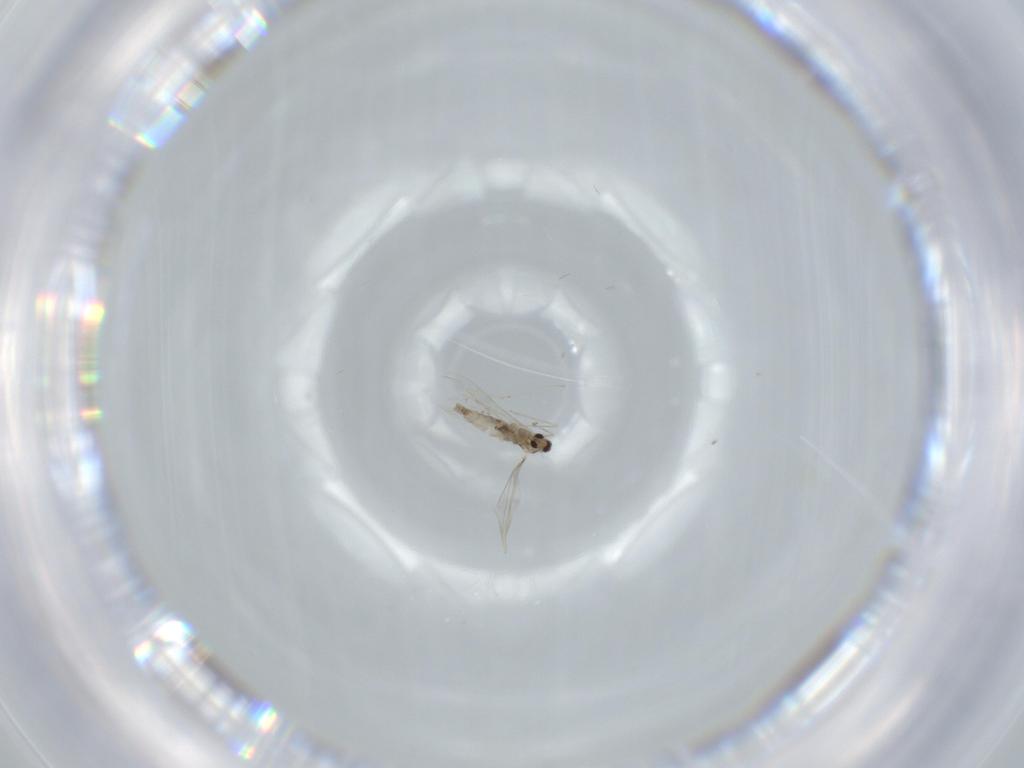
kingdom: Animalia
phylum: Arthropoda
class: Insecta
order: Diptera
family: Cecidomyiidae
